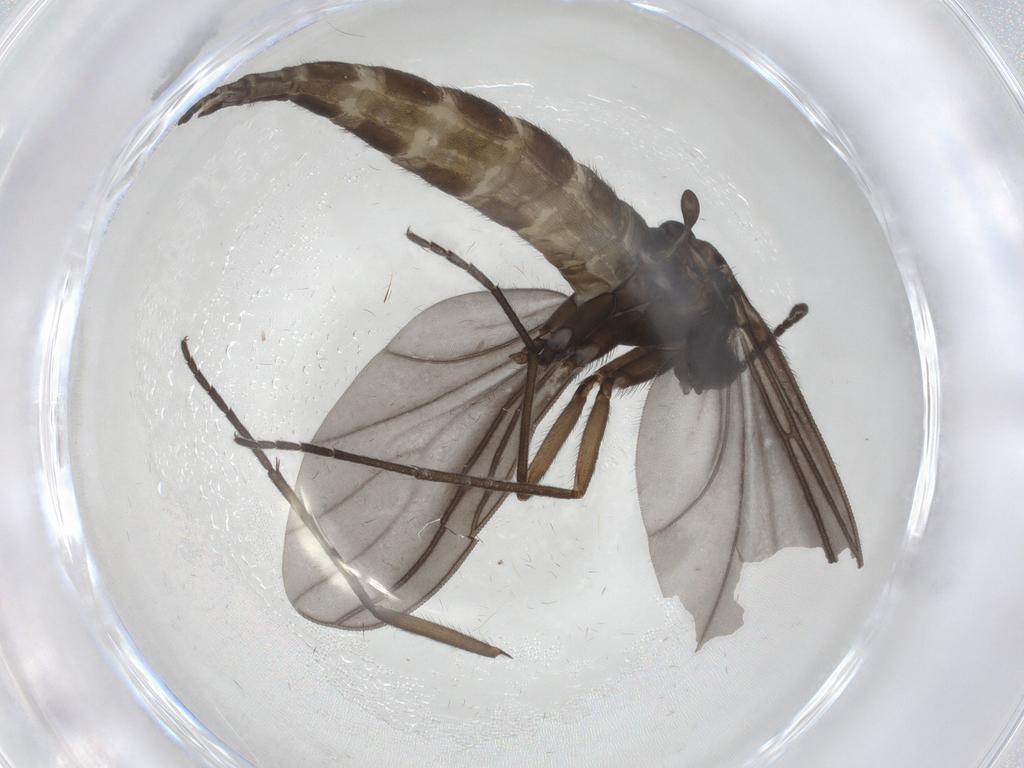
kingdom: Animalia
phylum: Arthropoda
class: Insecta
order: Diptera
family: Sciaridae
